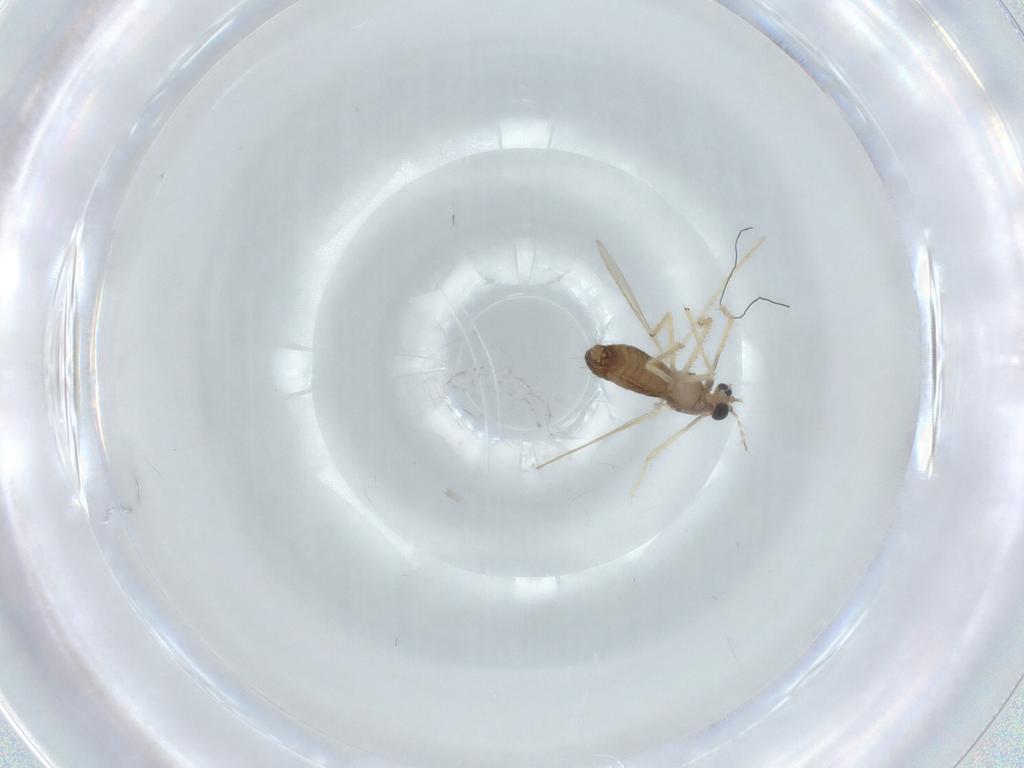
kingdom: Animalia
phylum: Arthropoda
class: Insecta
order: Diptera
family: Chironomidae
